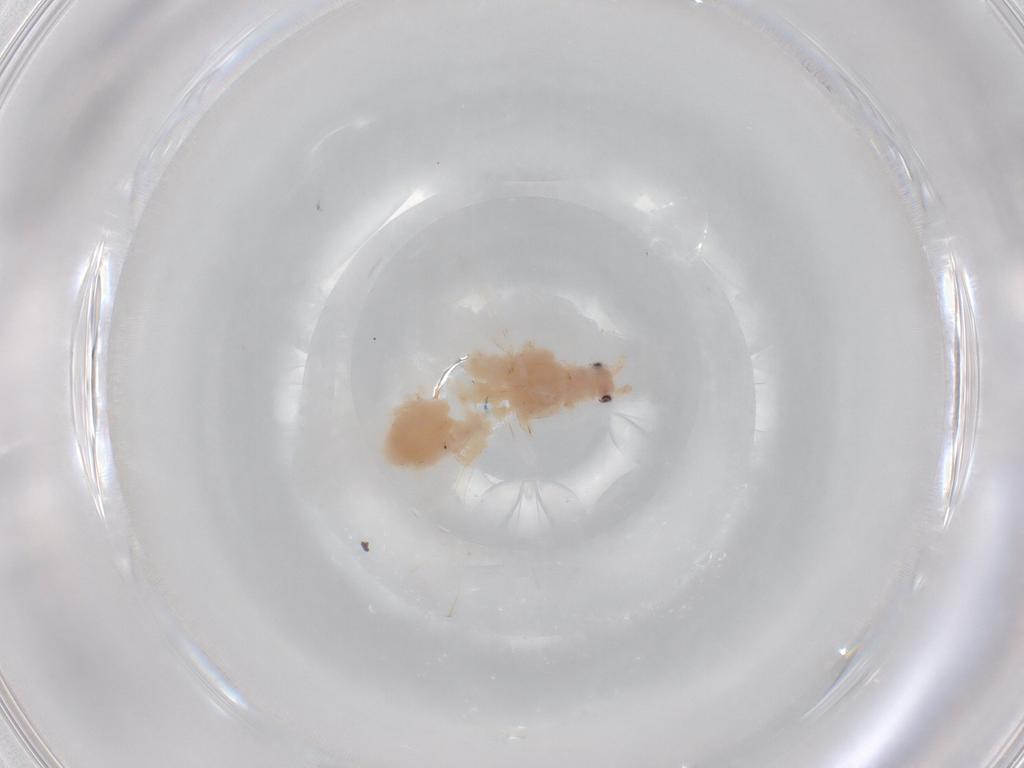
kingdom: Animalia
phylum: Arthropoda
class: Insecta
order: Hemiptera
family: Aphididae
